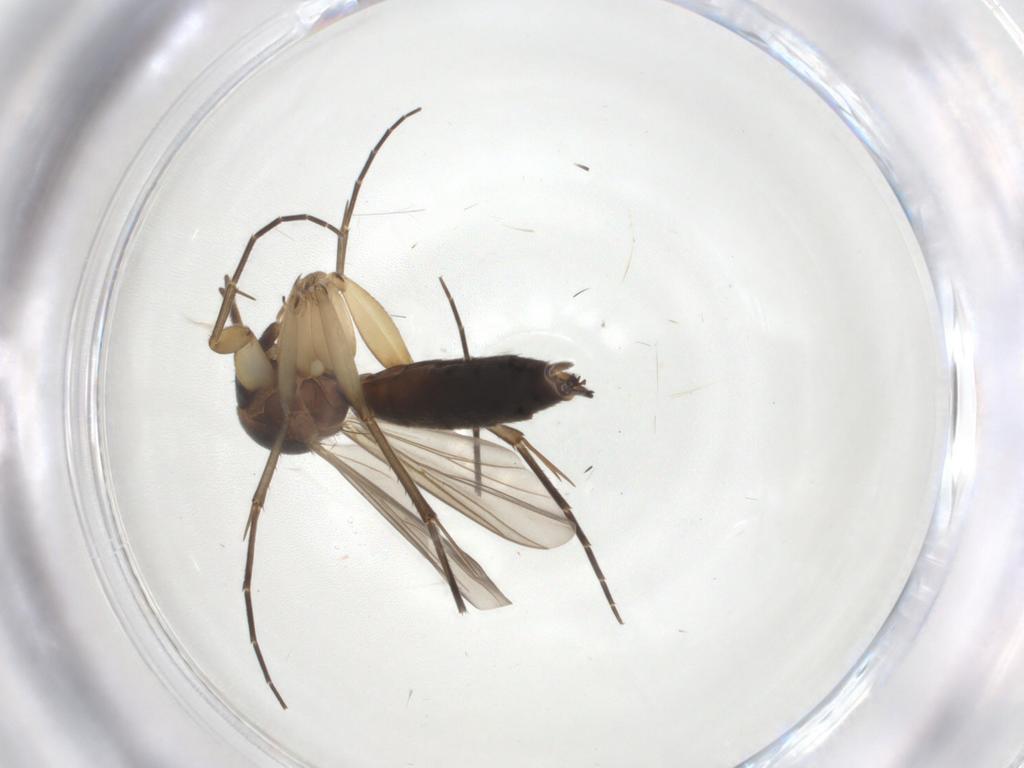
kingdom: Animalia
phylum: Arthropoda
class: Insecta
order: Diptera
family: Mycetophilidae
